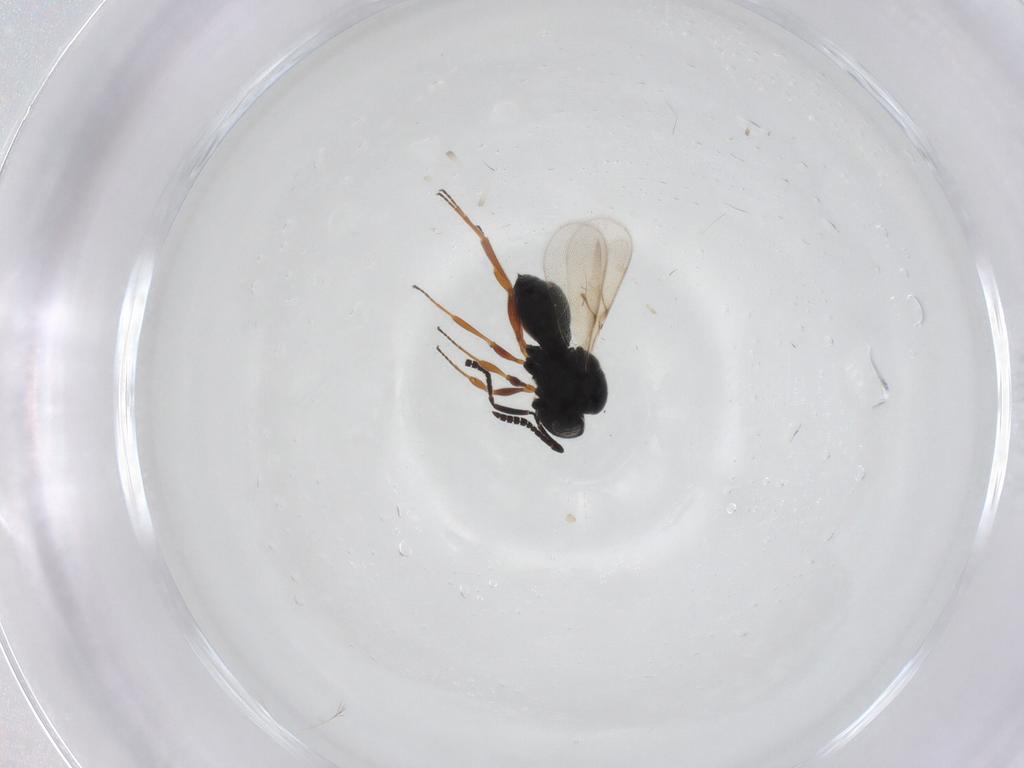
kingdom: Animalia
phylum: Arthropoda
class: Insecta
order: Hymenoptera
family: Scelionidae
